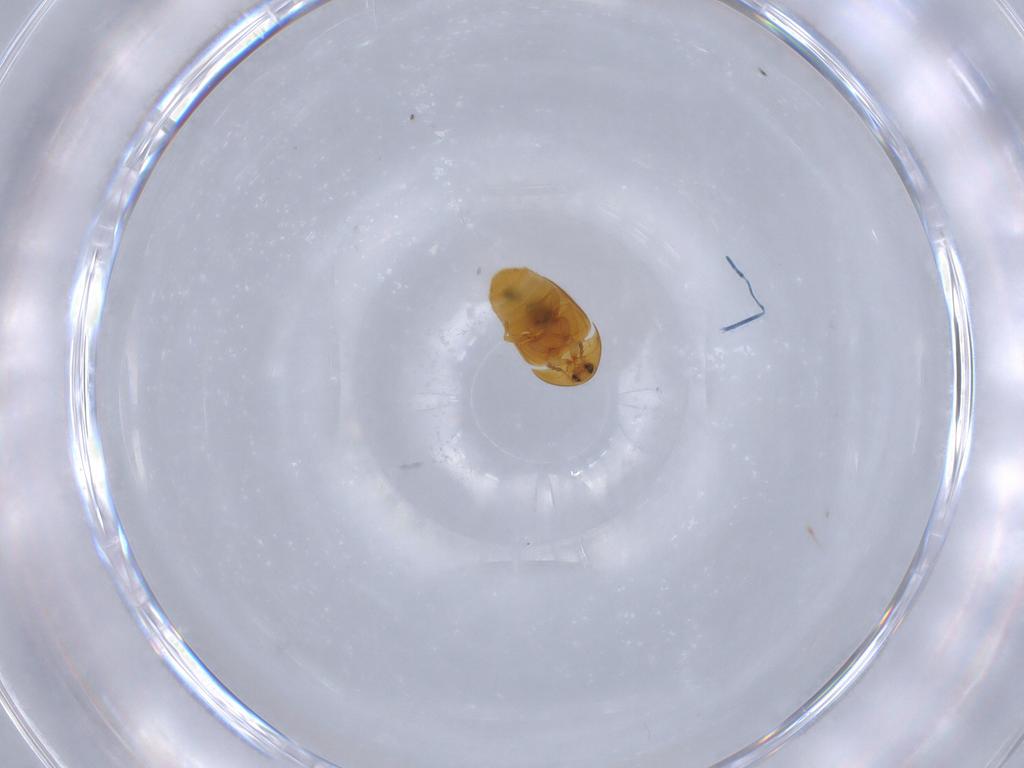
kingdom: Animalia
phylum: Arthropoda
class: Insecta
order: Coleoptera
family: Corylophidae
